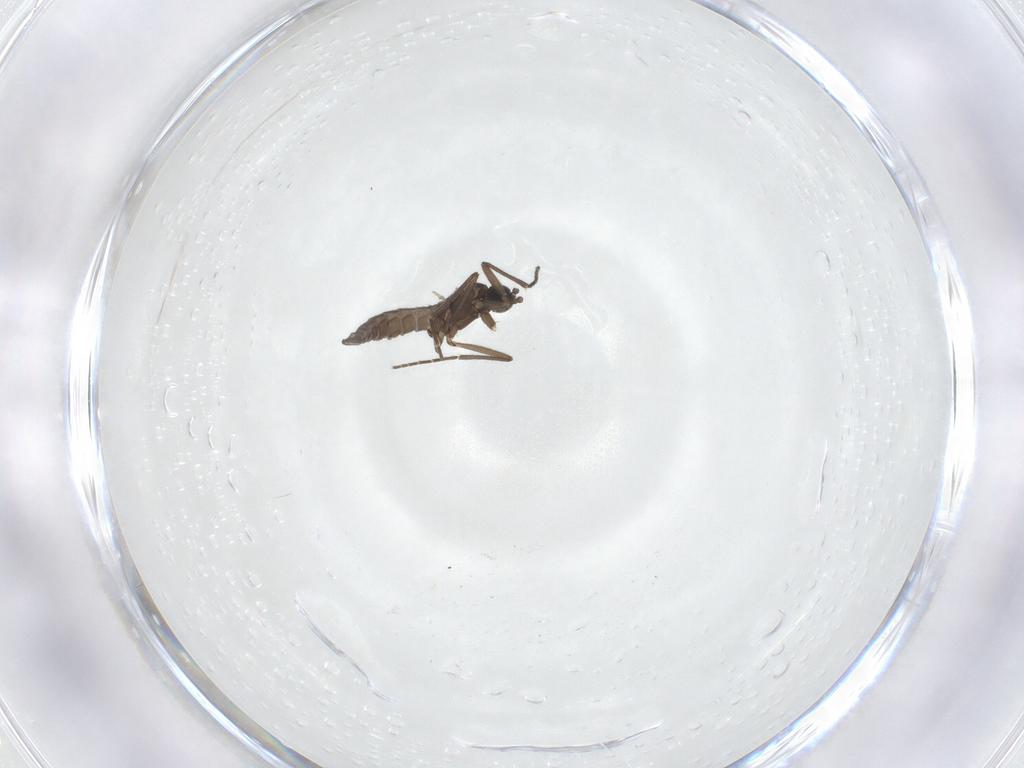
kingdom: Animalia
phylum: Arthropoda
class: Insecta
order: Diptera
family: Sciaridae
